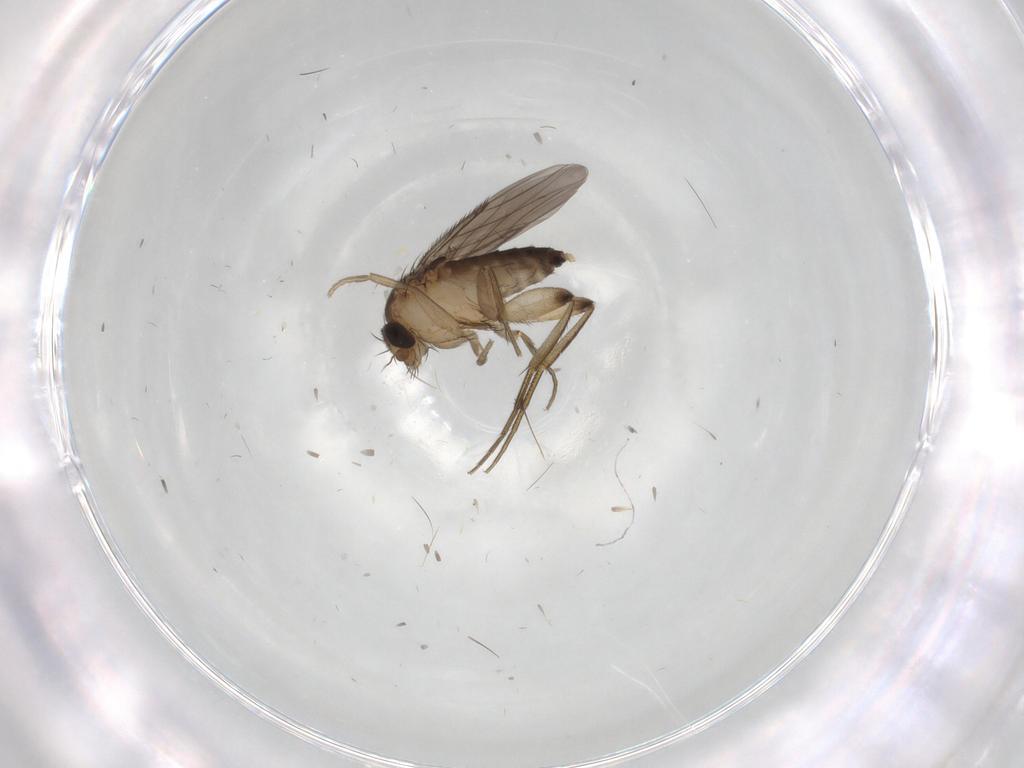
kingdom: Animalia
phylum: Arthropoda
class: Insecta
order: Diptera
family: Phoridae
